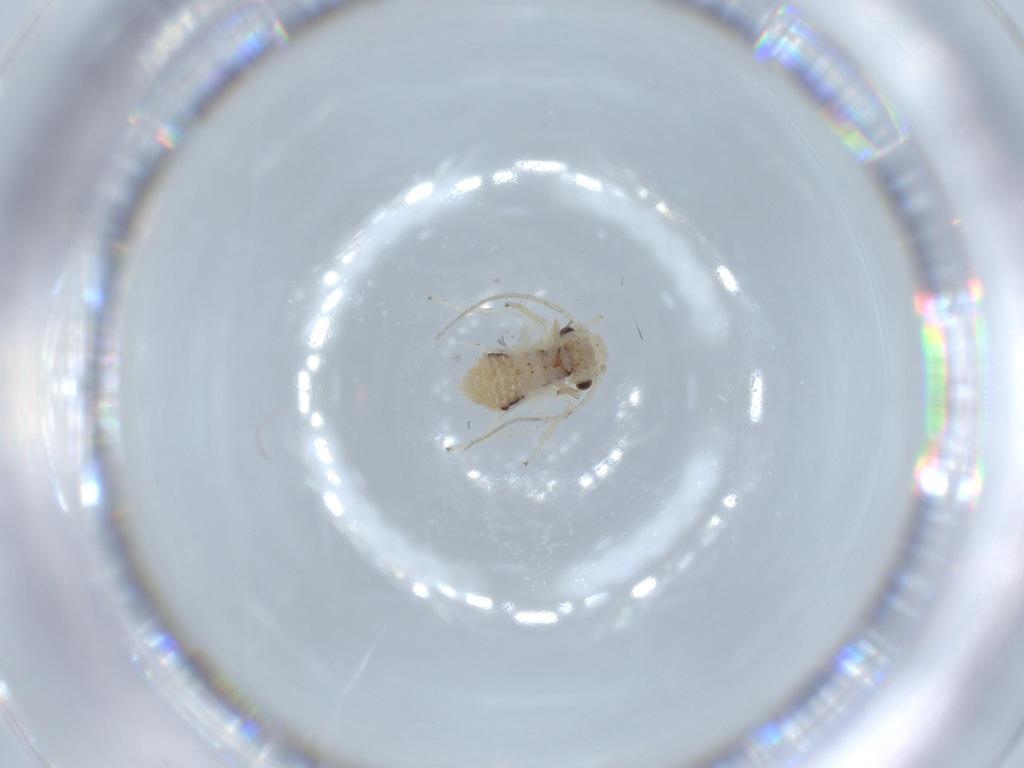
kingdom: Animalia
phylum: Arthropoda
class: Insecta
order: Psocodea
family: Caeciliusidae
